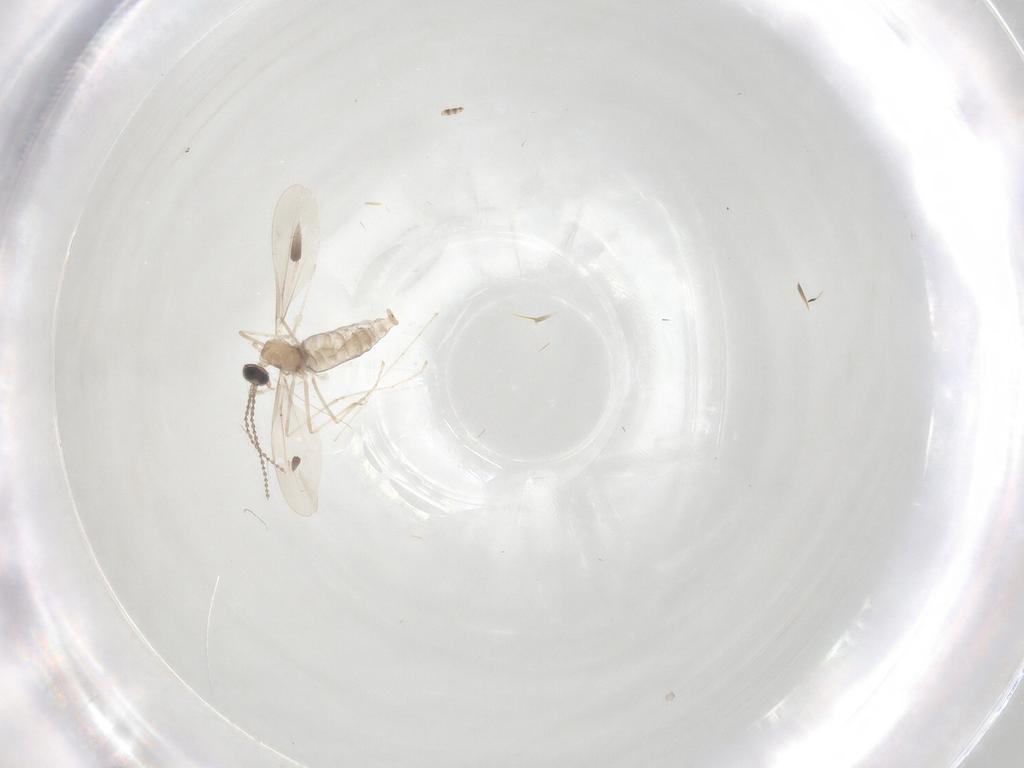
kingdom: Animalia
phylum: Arthropoda
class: Insecta
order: Diptera
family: Cecidomyiidae
